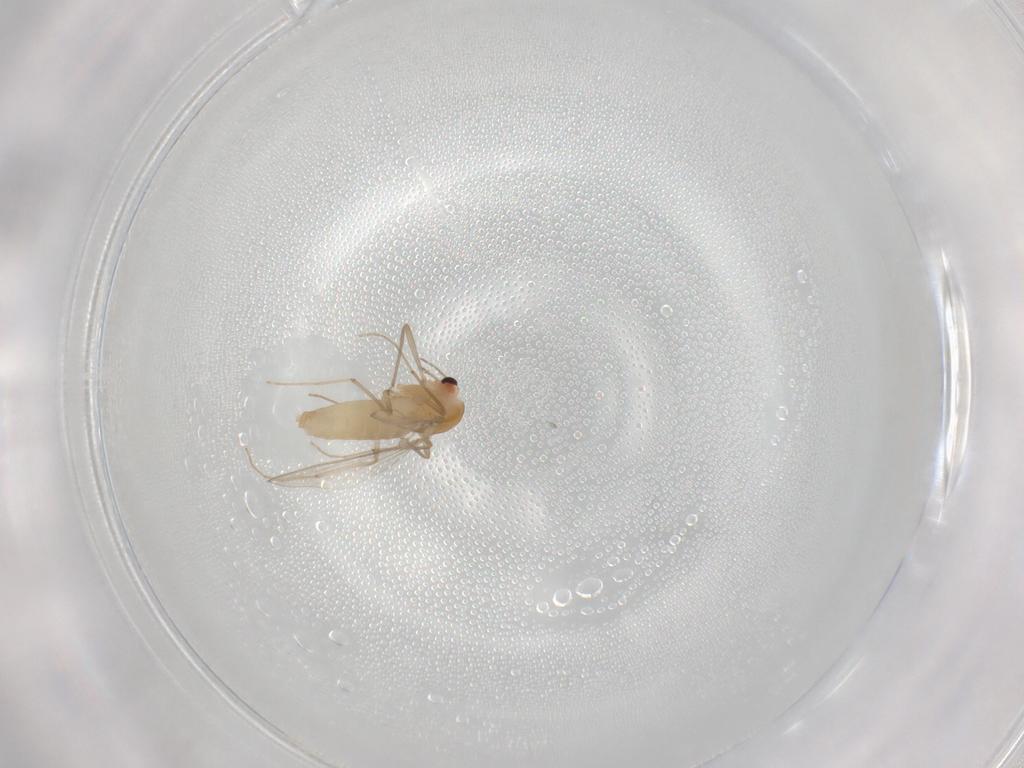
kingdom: Animalia
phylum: Arthropoda
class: Insecta
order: Diptera
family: Chironomidae
